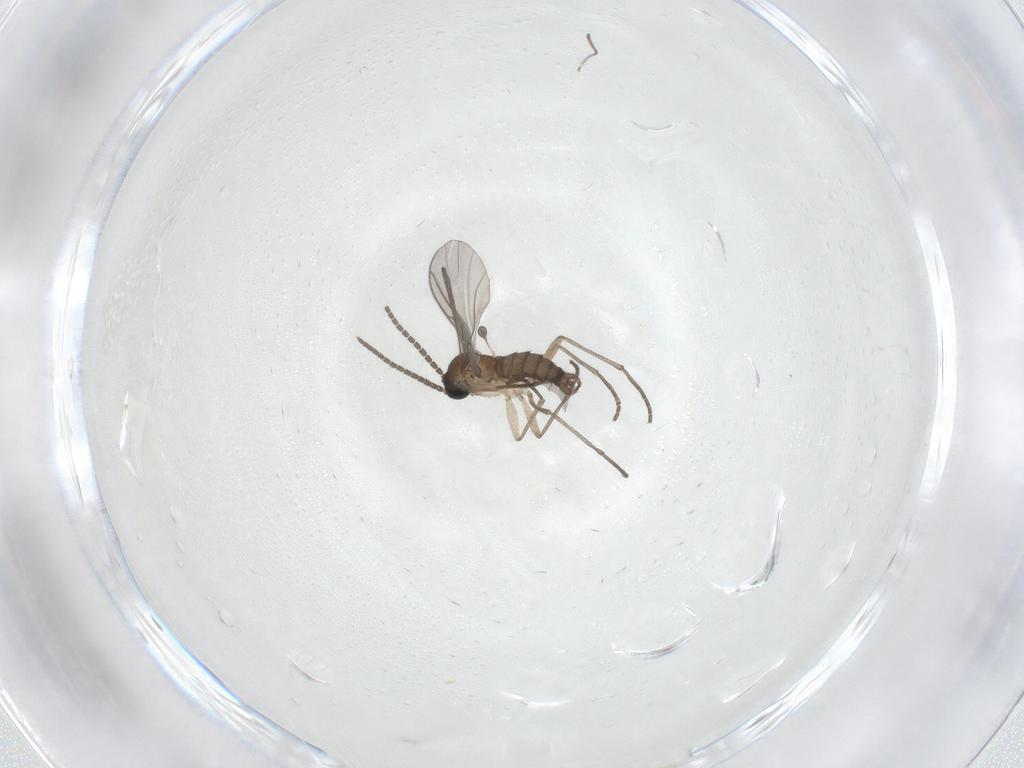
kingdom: Animalia
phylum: Arthropoda
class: Insecta
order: Diptera
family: Sciaridae
